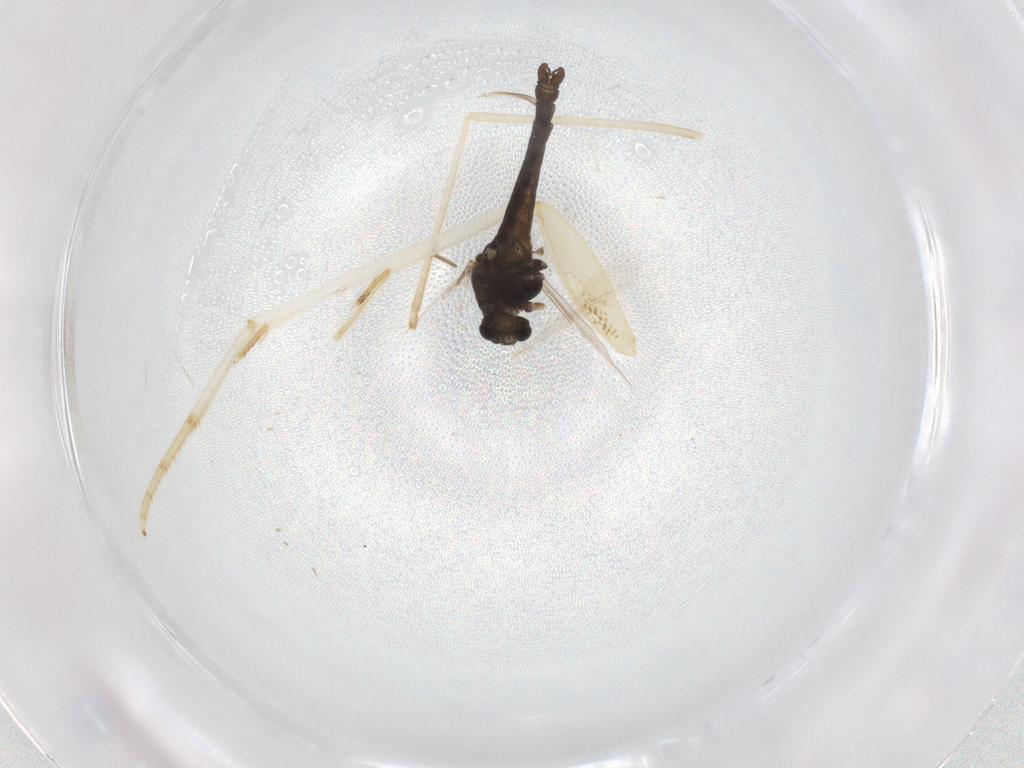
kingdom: Animalia
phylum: Arthropoda
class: Insecta
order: Diptera
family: Chironomidae
